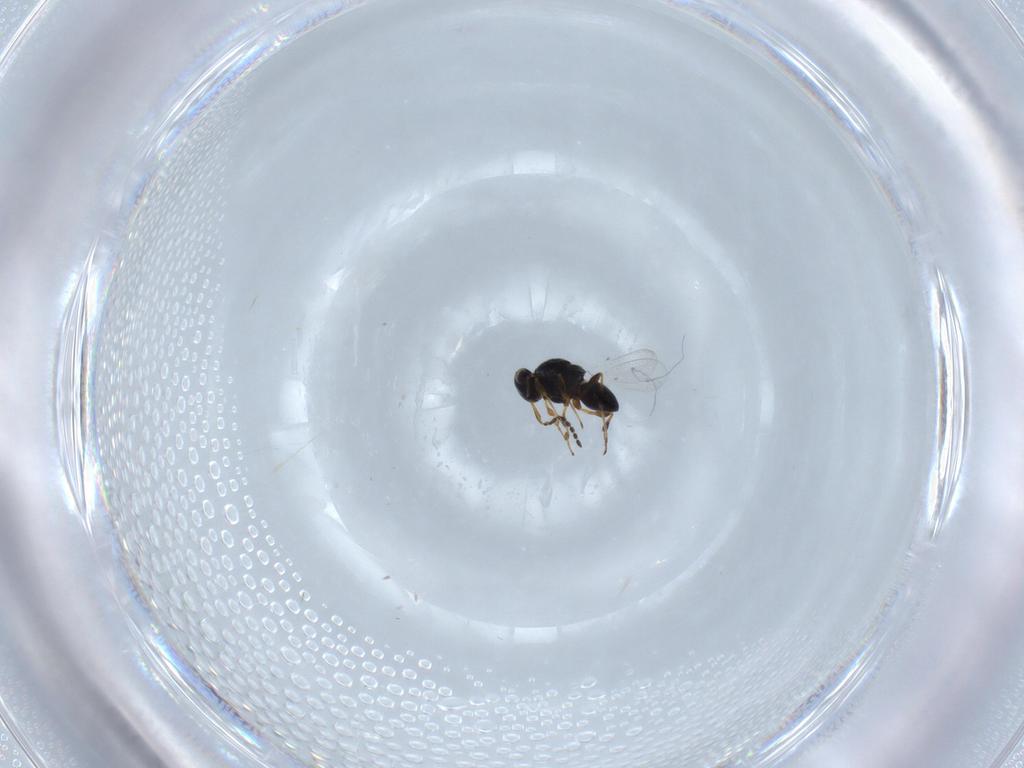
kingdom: Animalia
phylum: Arthropoda
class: Insecta
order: Hymenoptera
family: Platygastridae
